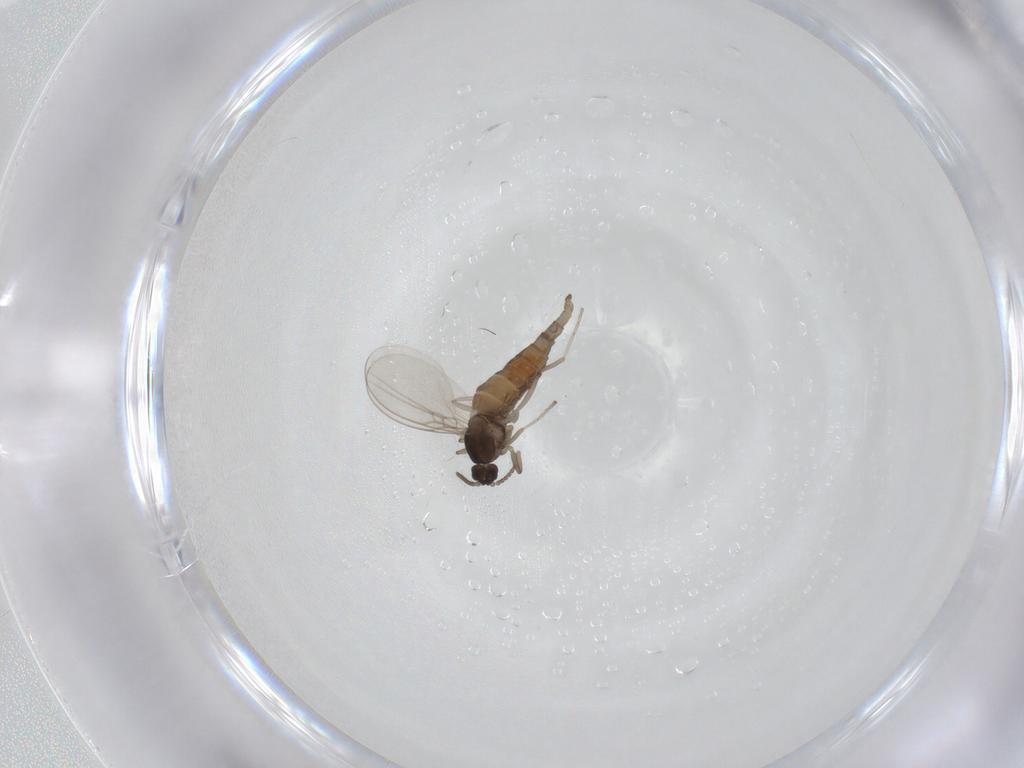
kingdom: Animalia
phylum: Arthropoda
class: Insecta
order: Diptera
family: Cecidomyiidae
